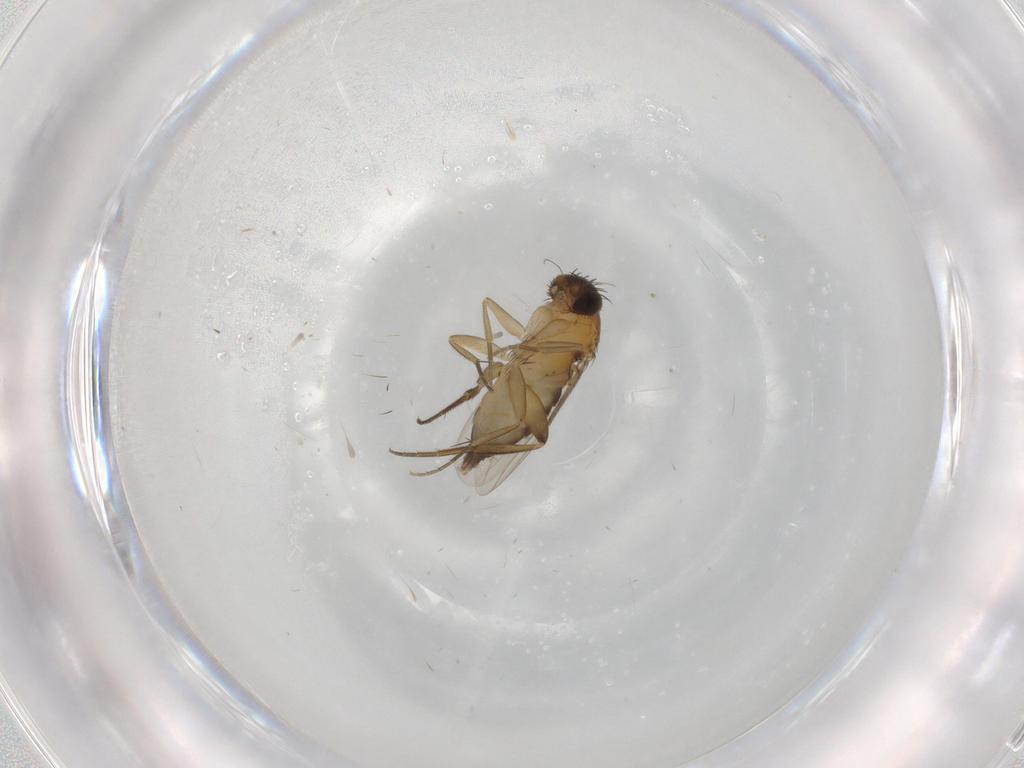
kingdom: Animalia
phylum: Arthropoda
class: Insecta
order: Diptera
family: Phoridae
